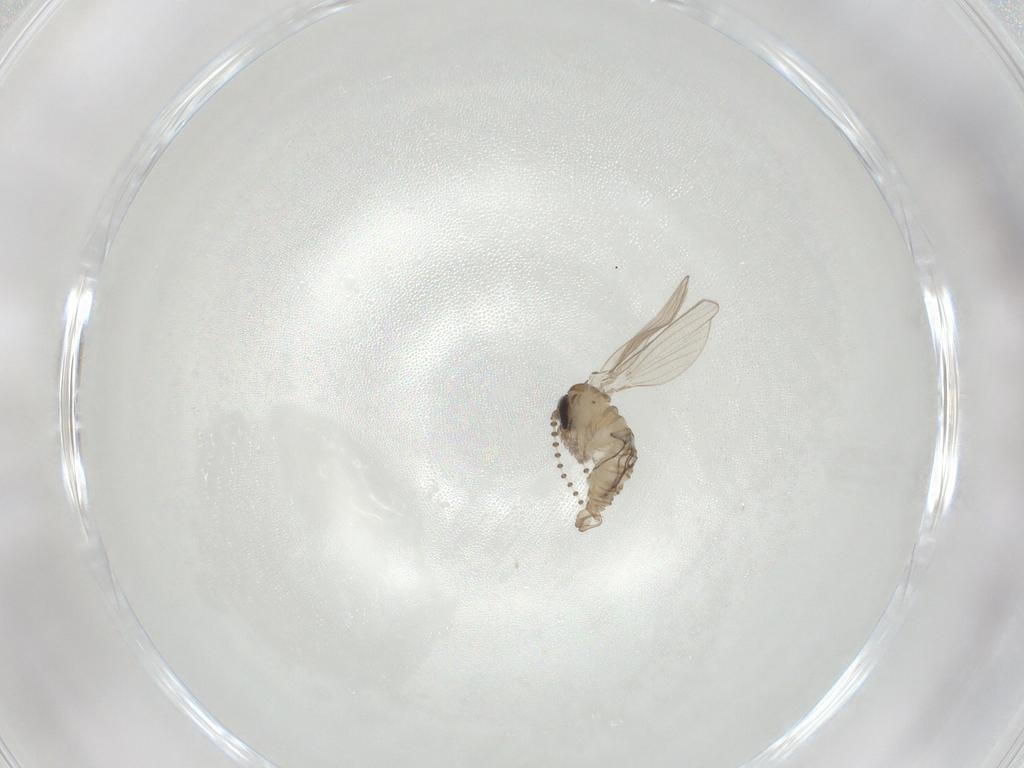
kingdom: Animalia
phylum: Arthropoda
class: Insecta
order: Diptera
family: Psychodidae
